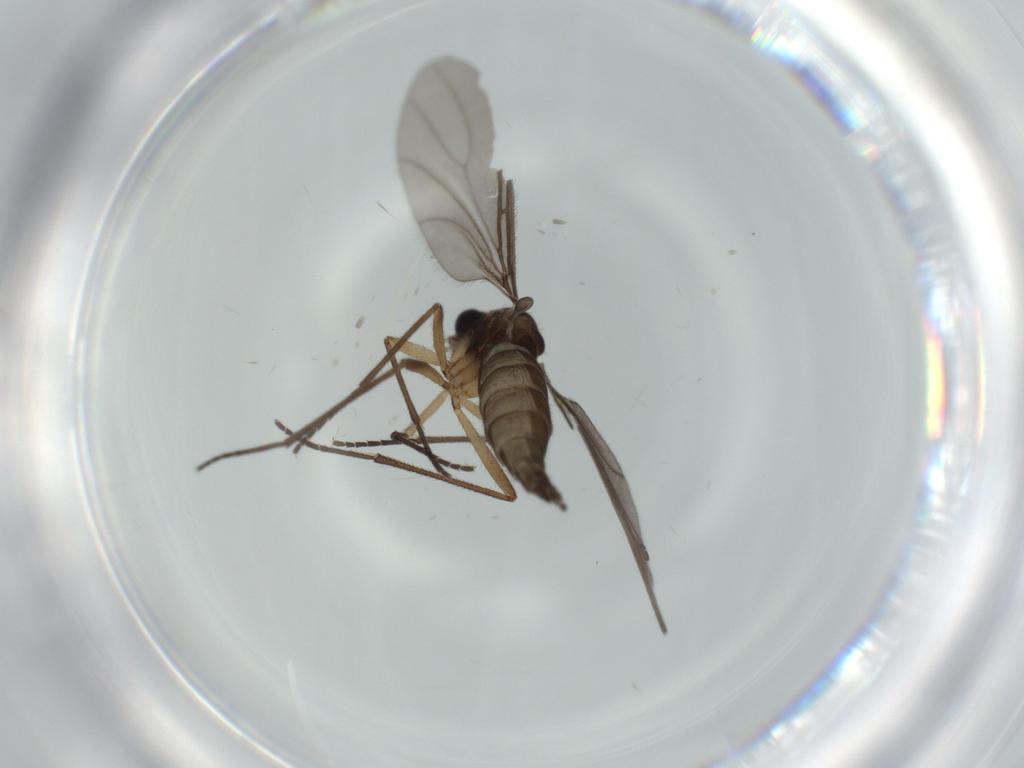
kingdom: Animalia
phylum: Arthropoda
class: Insecta
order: Diptera
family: Sciaridae
